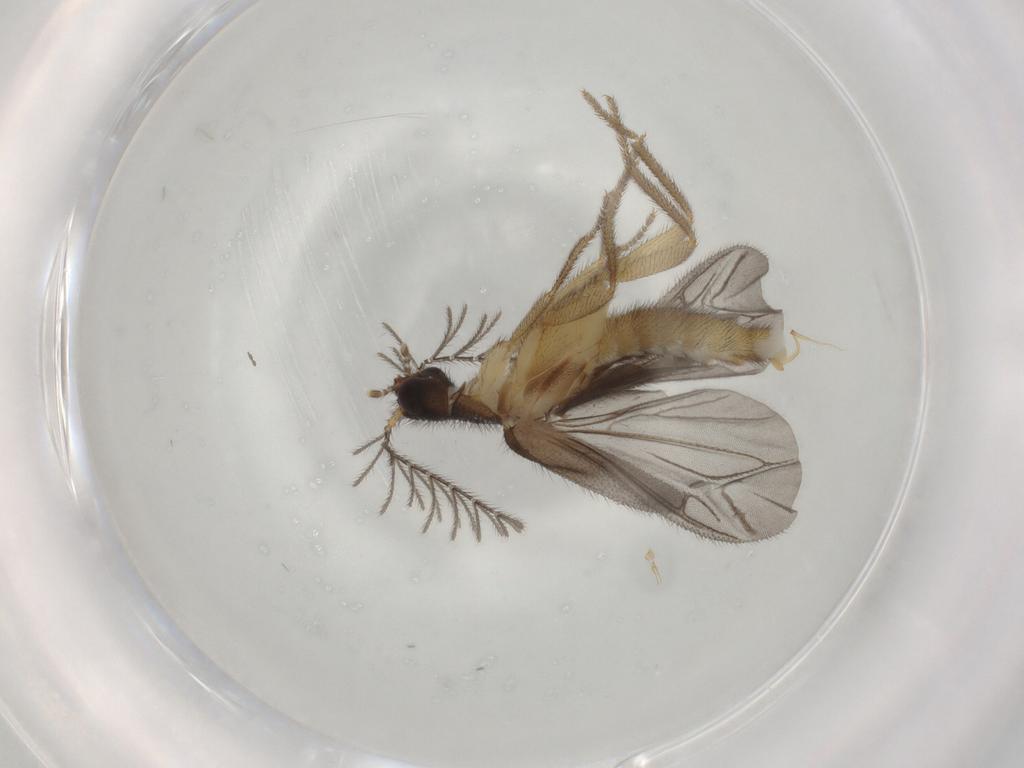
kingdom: Animalia
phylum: Arthropoda
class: Insecta
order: Coleoptera
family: Phengodidae
